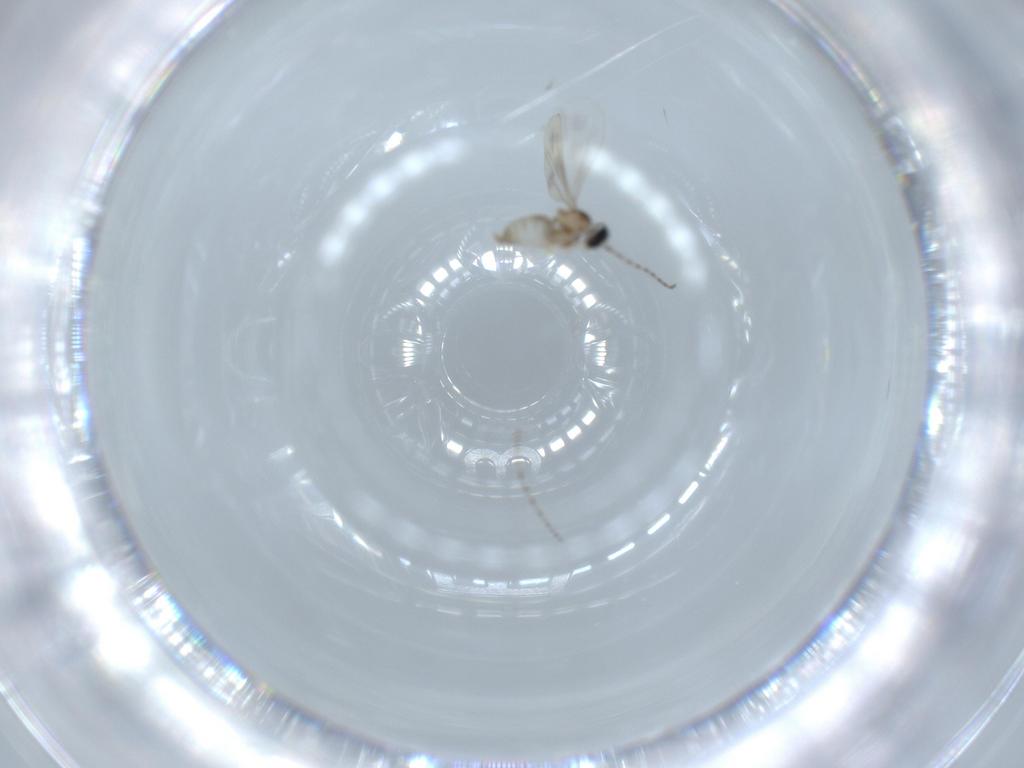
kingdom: Animalia
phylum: Arthropoda
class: Insecta
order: Diptera
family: Cecidomyiidae
